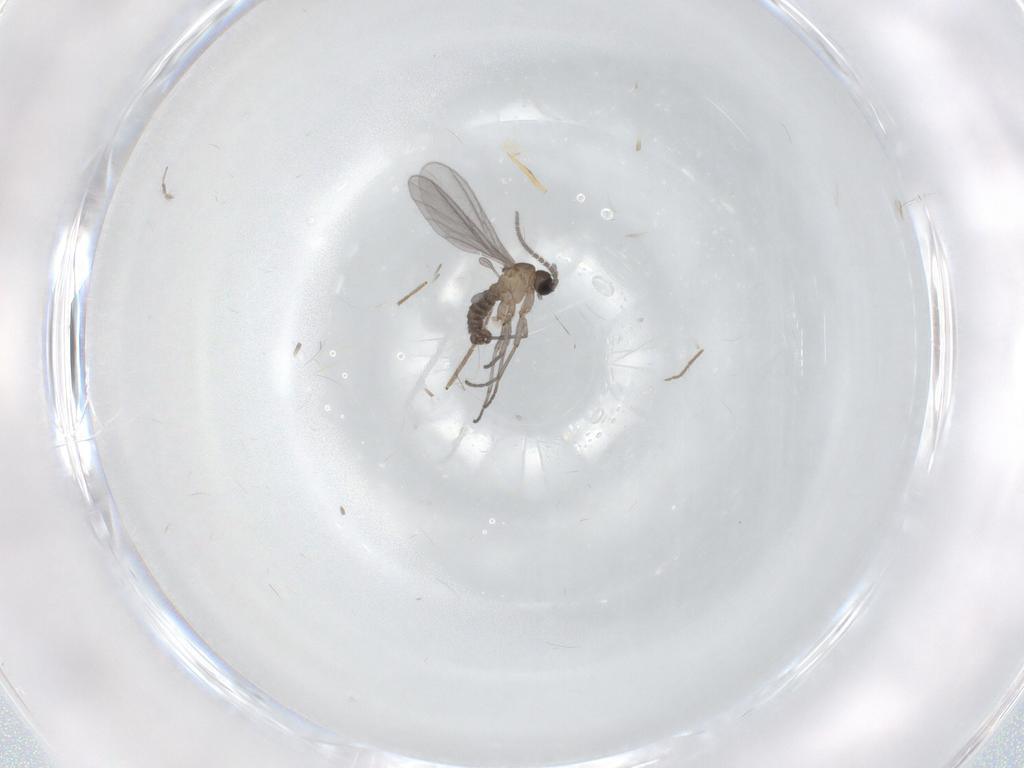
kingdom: Animalia
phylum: Arthropoda
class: Insecta
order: Diptera
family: Sciaridae
